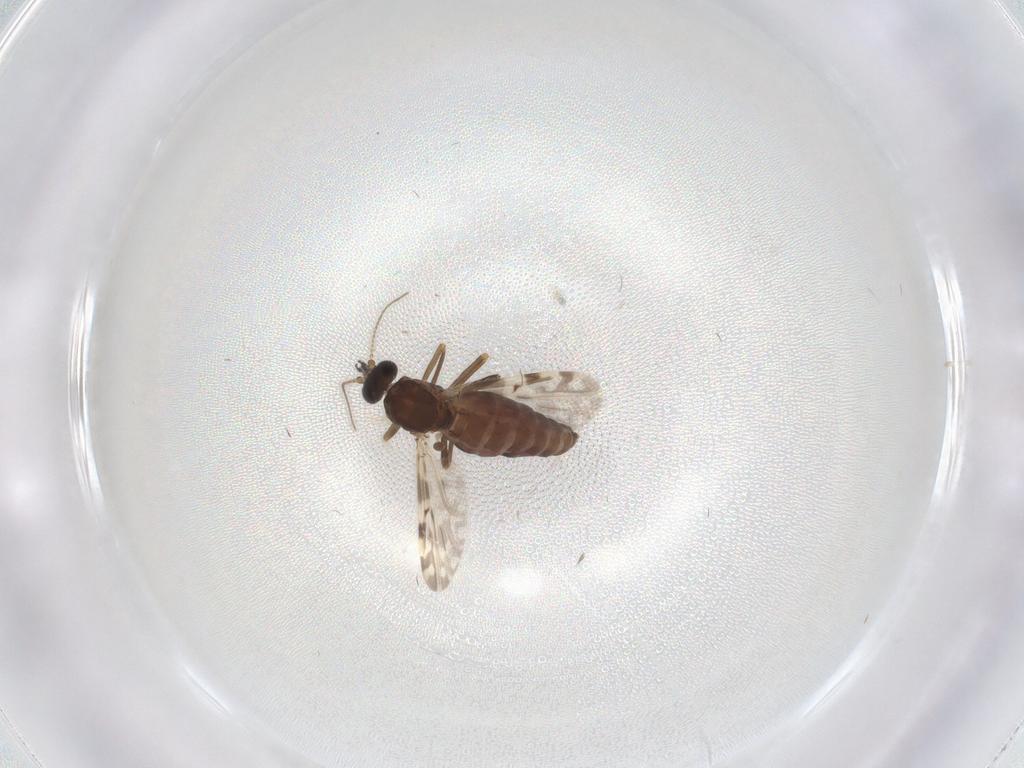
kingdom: Animalia
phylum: Arthropoda
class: Insecta
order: Diptera
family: Ceratopogonidae
